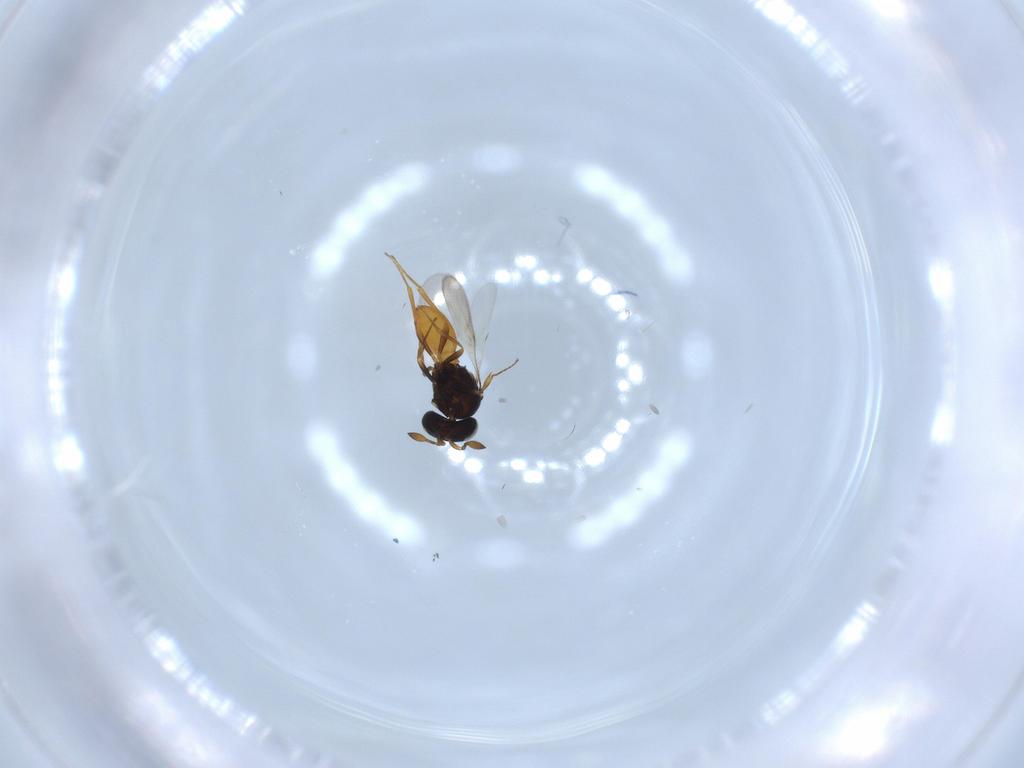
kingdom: Animalia
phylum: Arthropoda
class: Insecta
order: Hymenoptera
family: Scelionidae
